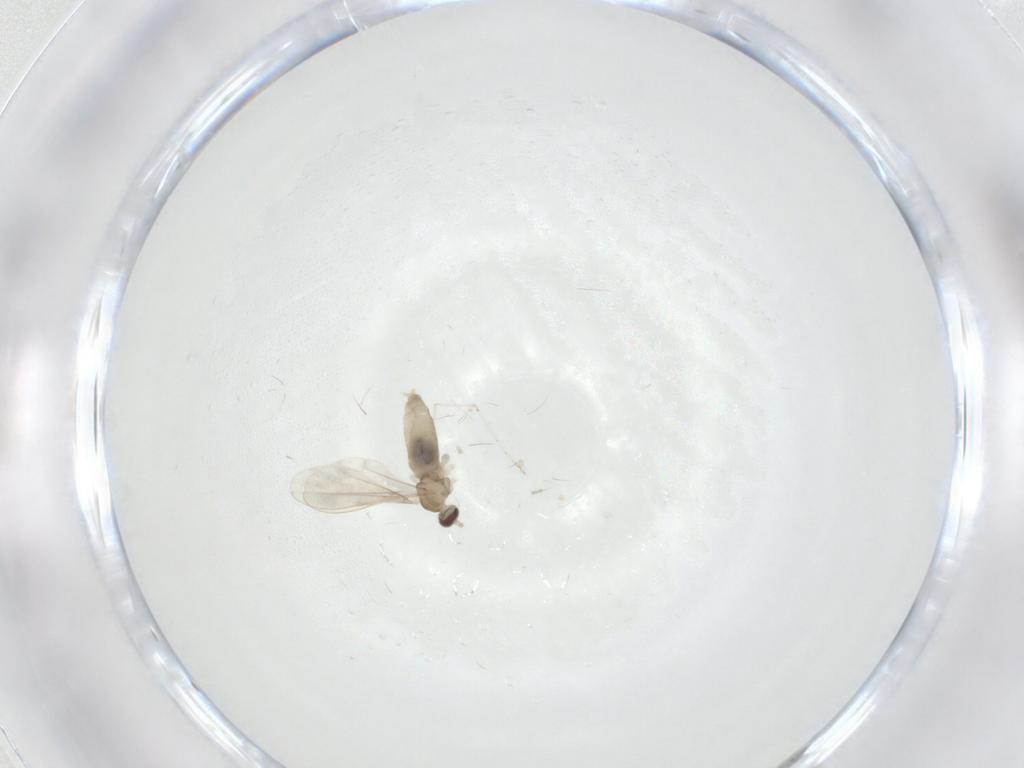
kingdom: Animalia
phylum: Arthropoda
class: Insecta
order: Diptera
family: Cecidomyiidae
